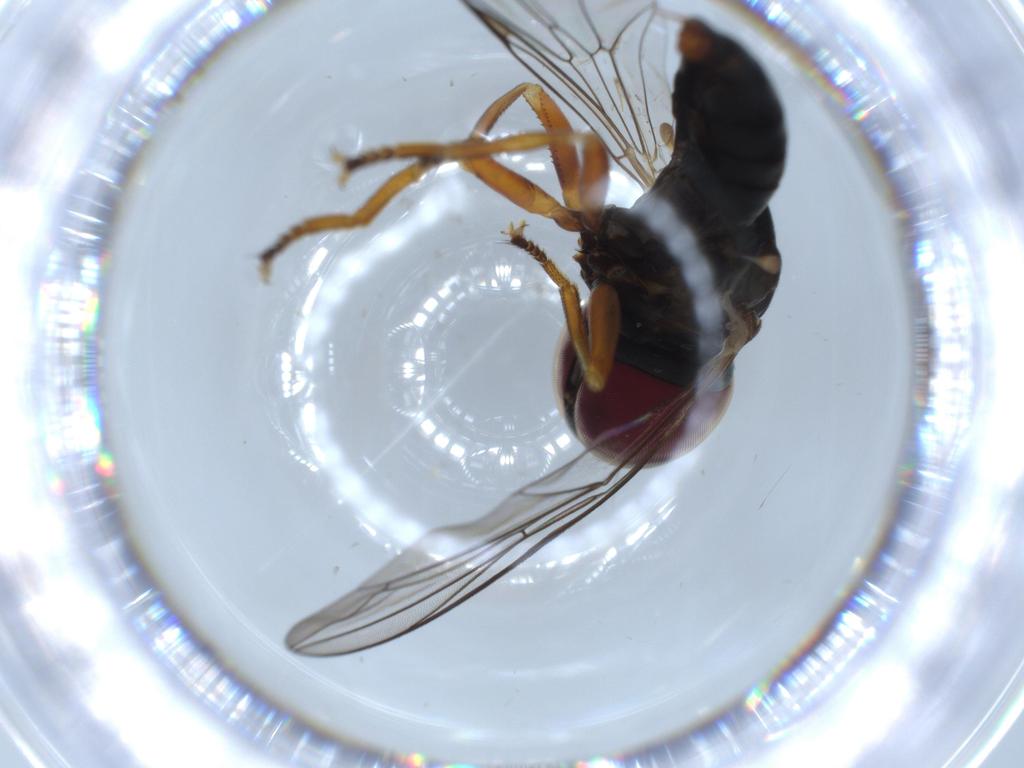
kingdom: Animalia
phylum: Arthropoda
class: Insecta
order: Diptera
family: Pipunculidae
